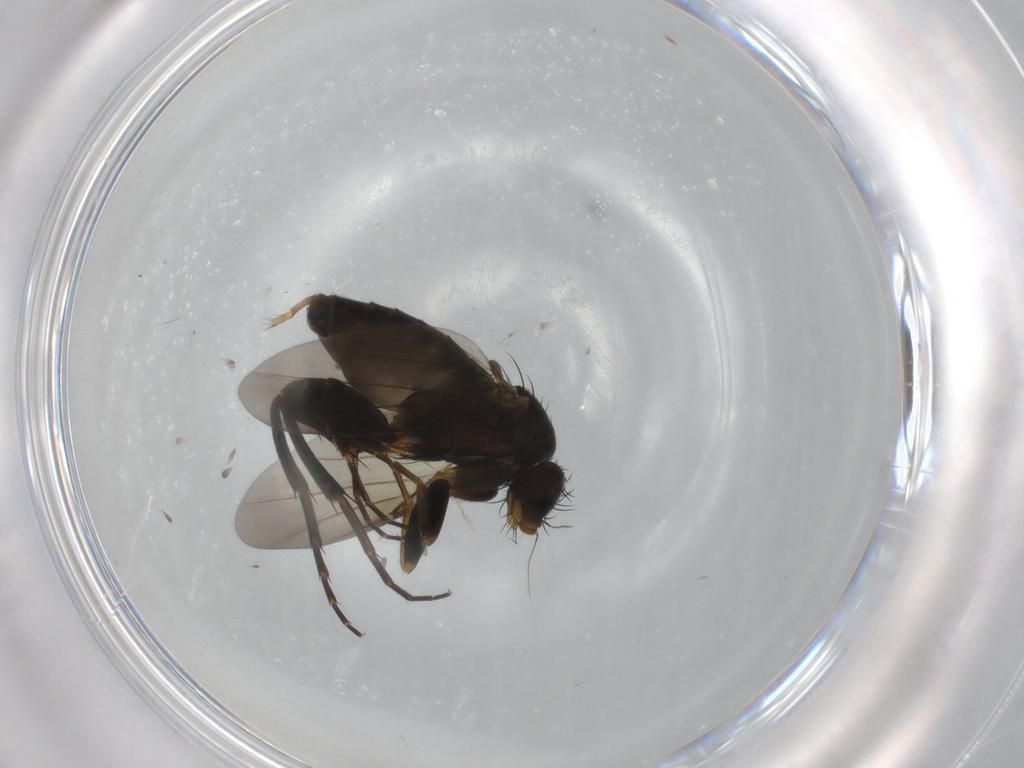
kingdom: Animalia
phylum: Arthropoda
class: Insecta
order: Diptera
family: Phoridae
